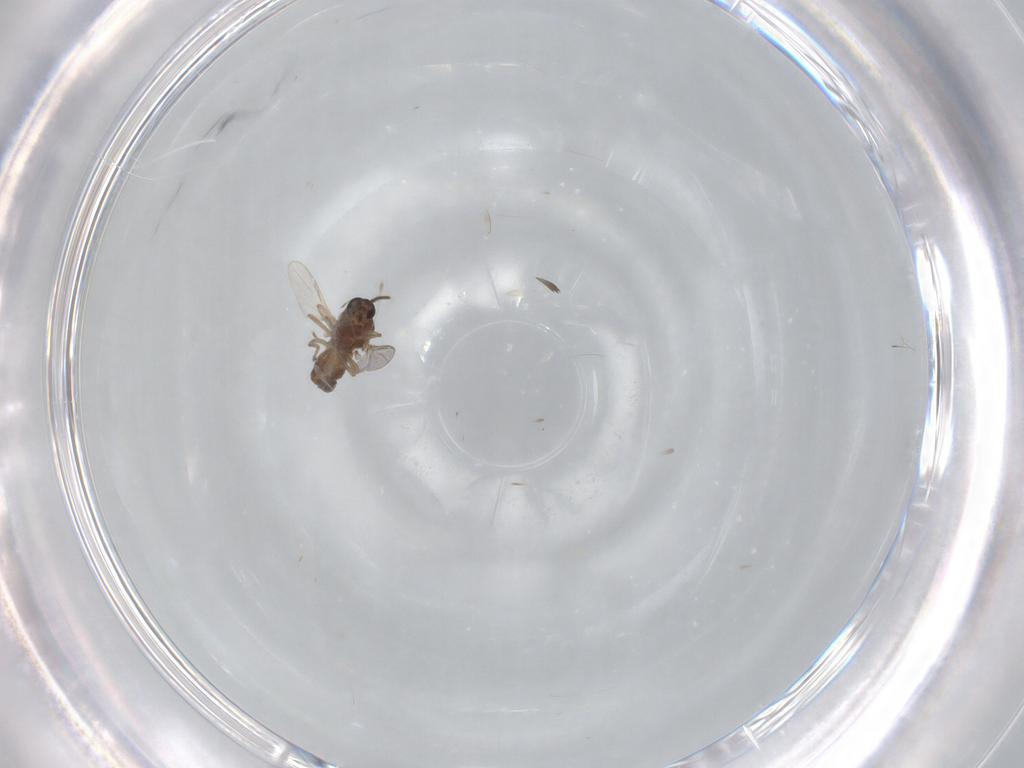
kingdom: Animalia
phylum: Arthropoda
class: Insecta
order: Diptera
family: Ceratopogonidae
